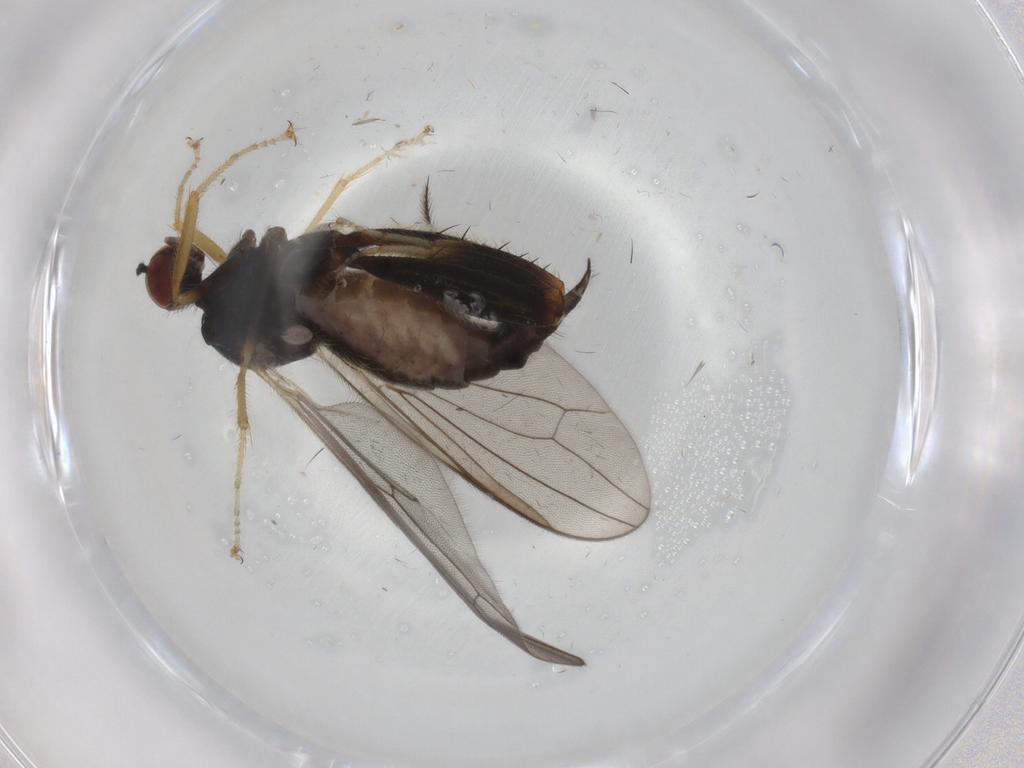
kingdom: Animalia
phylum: Arthropoda
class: Insecta
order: Diptera
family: Hybotidae
